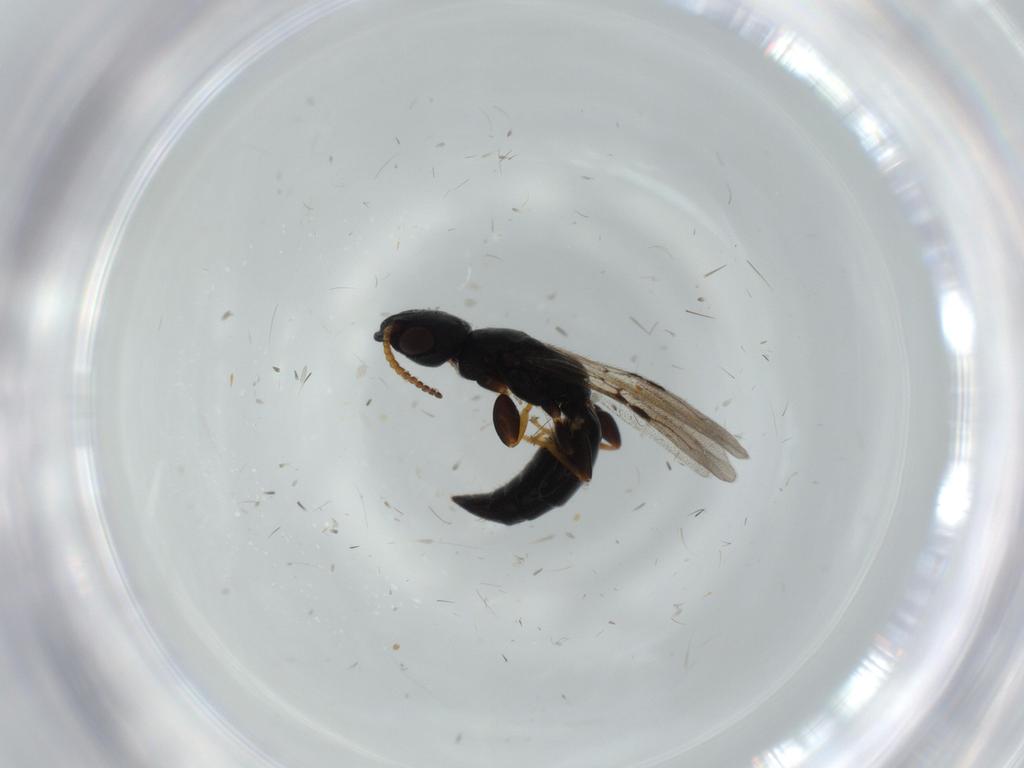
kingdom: Animalia
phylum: Arthropoda
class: Insecta
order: Hymenoptera
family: Bethylidae
